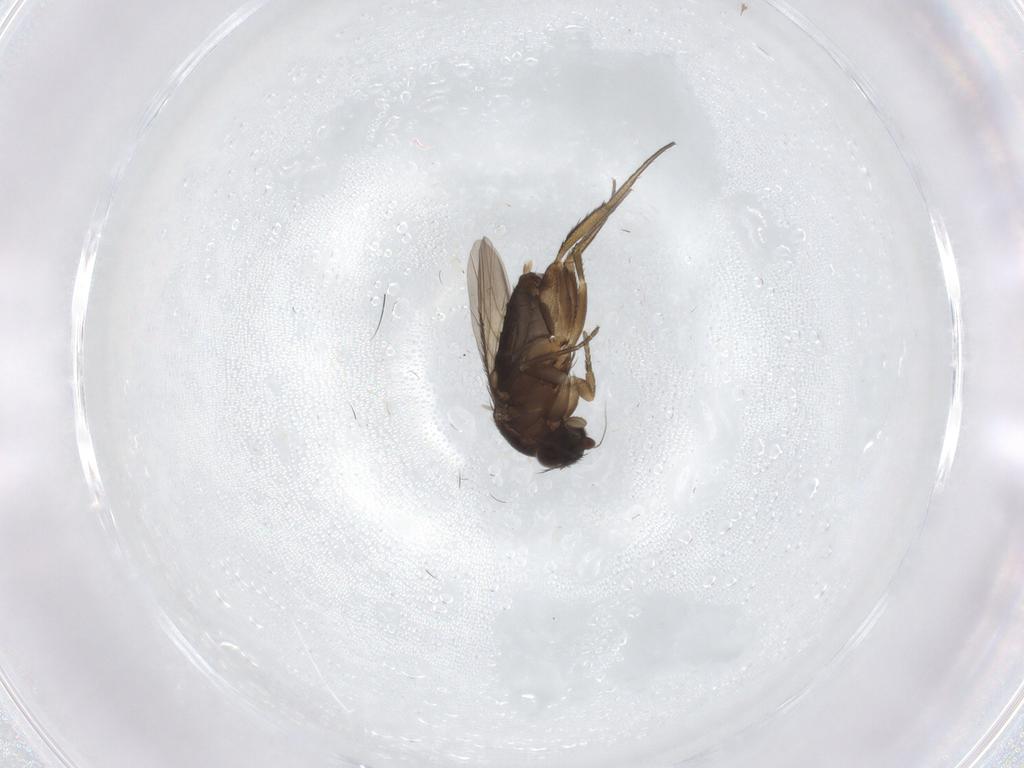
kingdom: Animalia
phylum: Arthropoda
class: Insecta
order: Diptera
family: Phoridae
